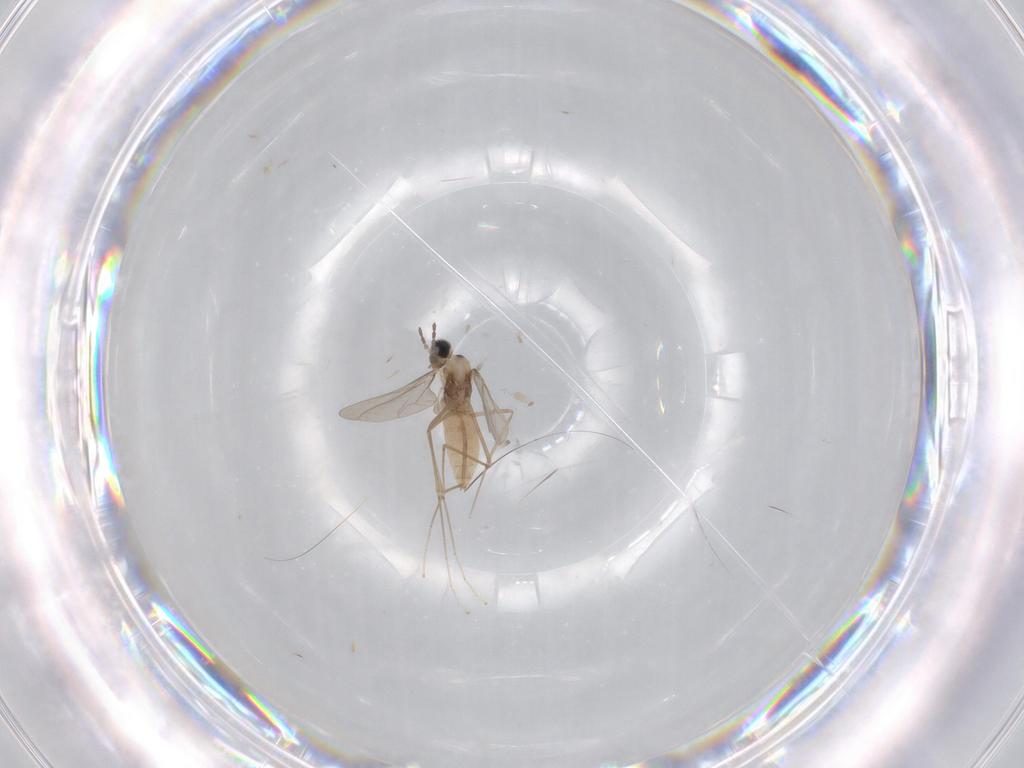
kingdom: Animalia
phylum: Arthropoda
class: Insecta
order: Diptera
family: Cecidomyiidae
